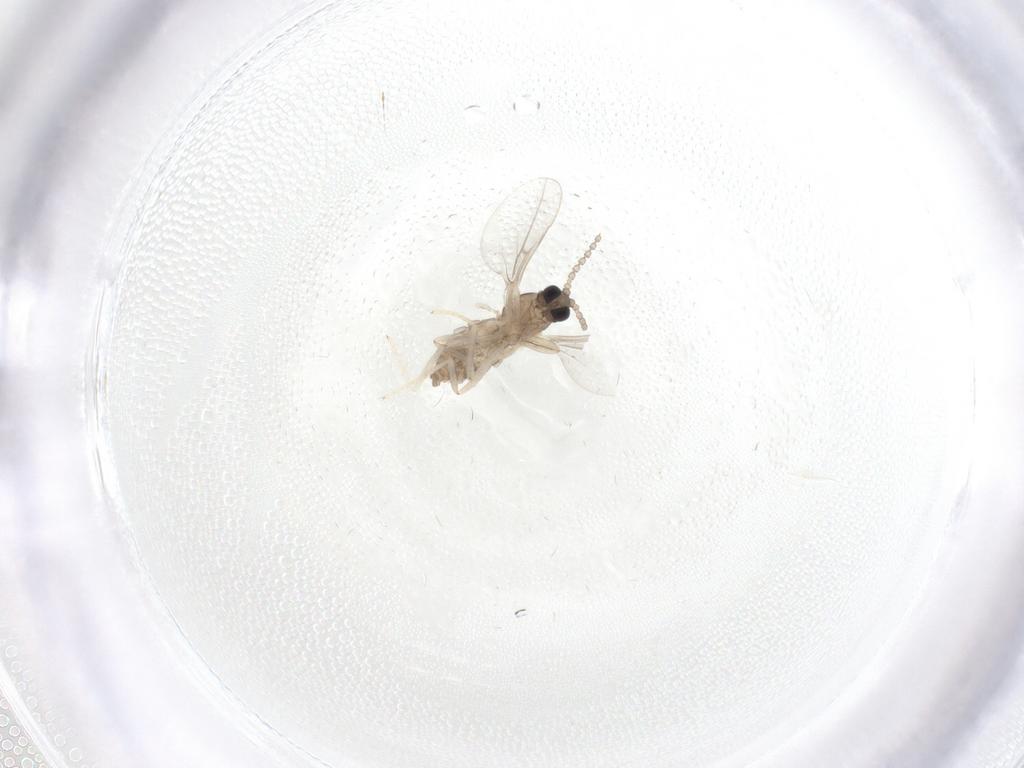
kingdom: Animalia
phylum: Arthropoda
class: Insecta
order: Diptera
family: Cecidomyiidae
